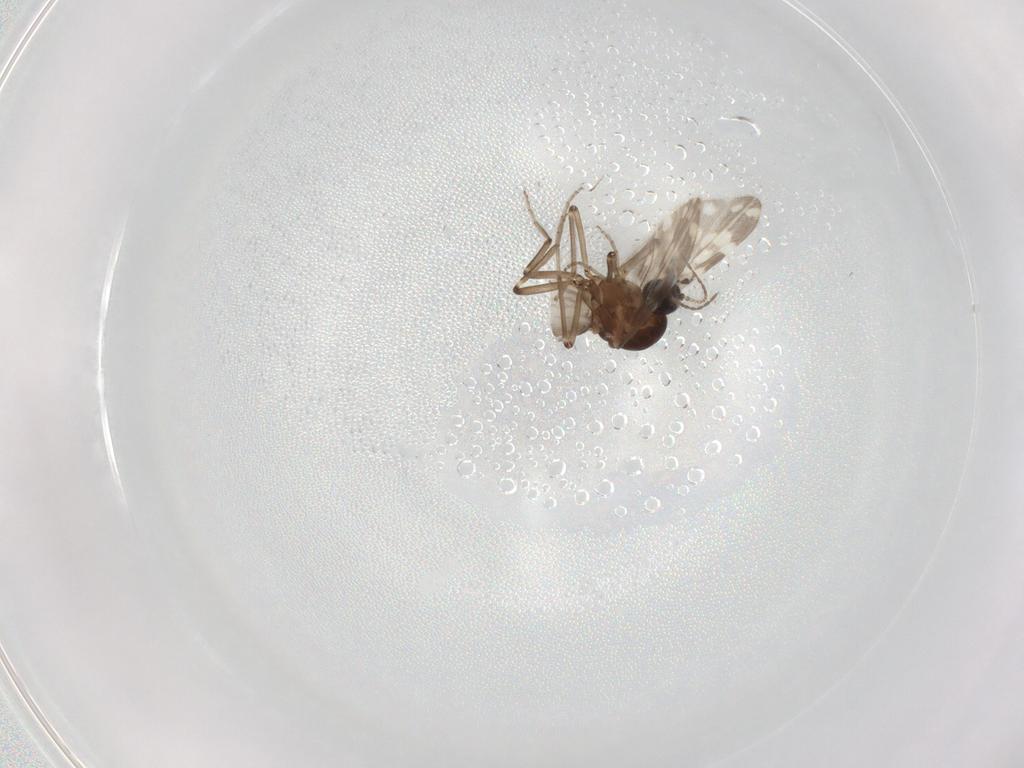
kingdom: Animalia
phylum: Arthropoda
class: Insecta
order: Diptera
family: Ceratopogonidae
